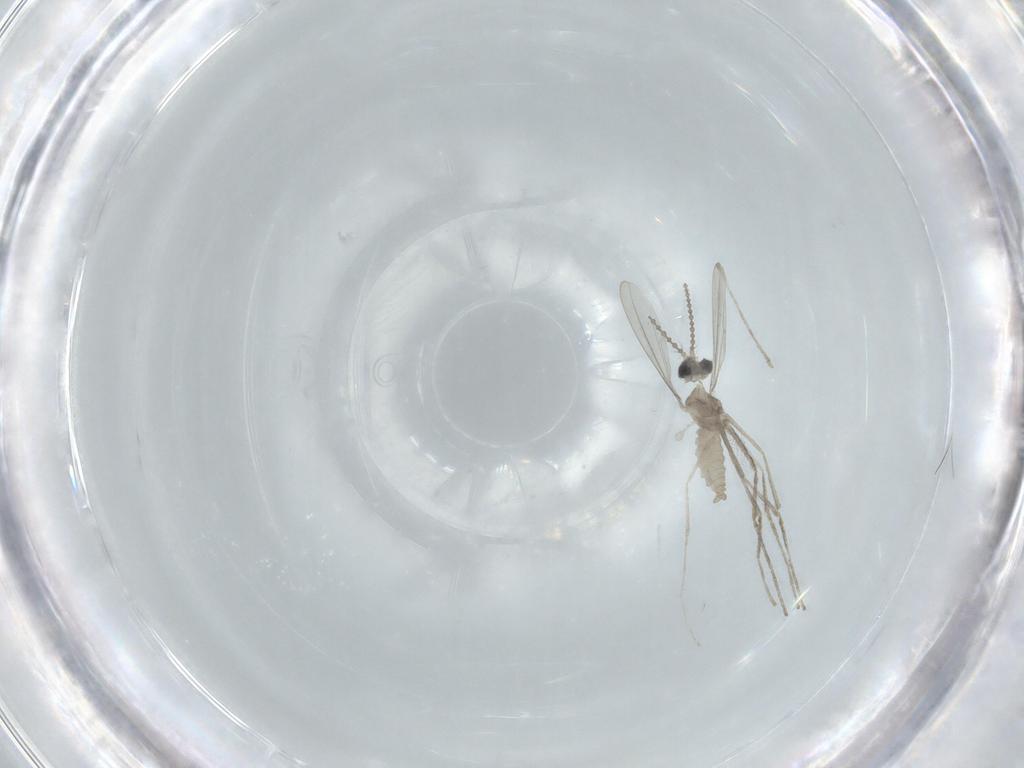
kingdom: Animalia
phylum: Arthropoda
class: Insecta
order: Diptera
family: Cecidomyiidae
